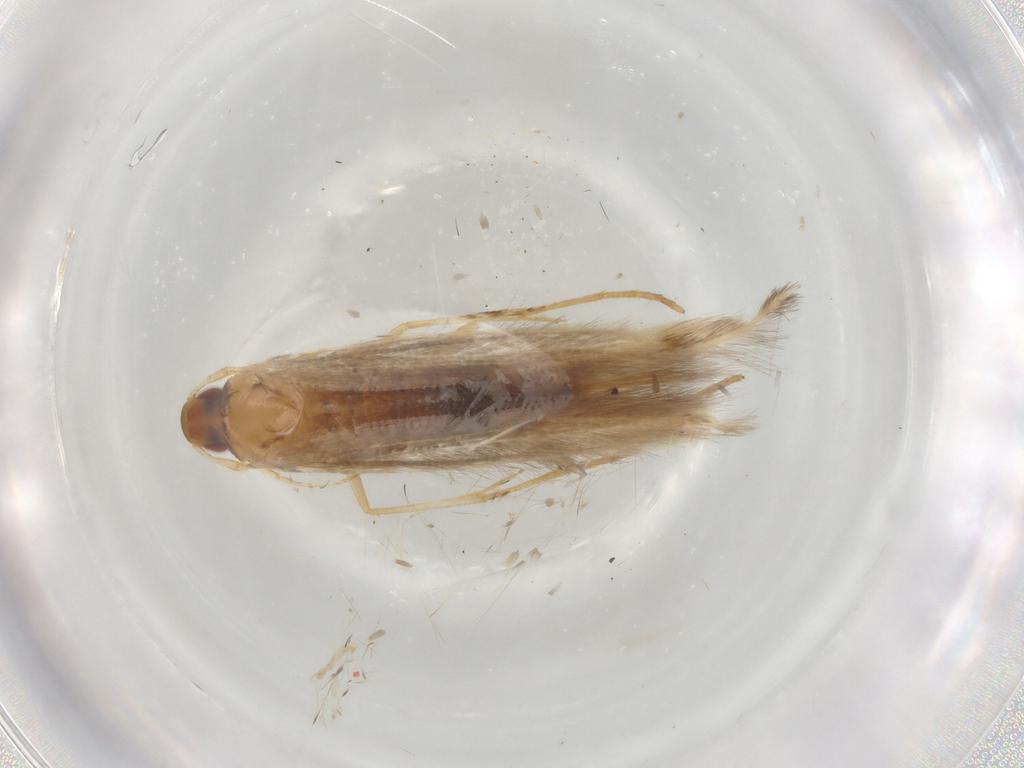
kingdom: Animalia
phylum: Arthropoda
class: Insecta
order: Lepidoptera
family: Cosmopterigidae
